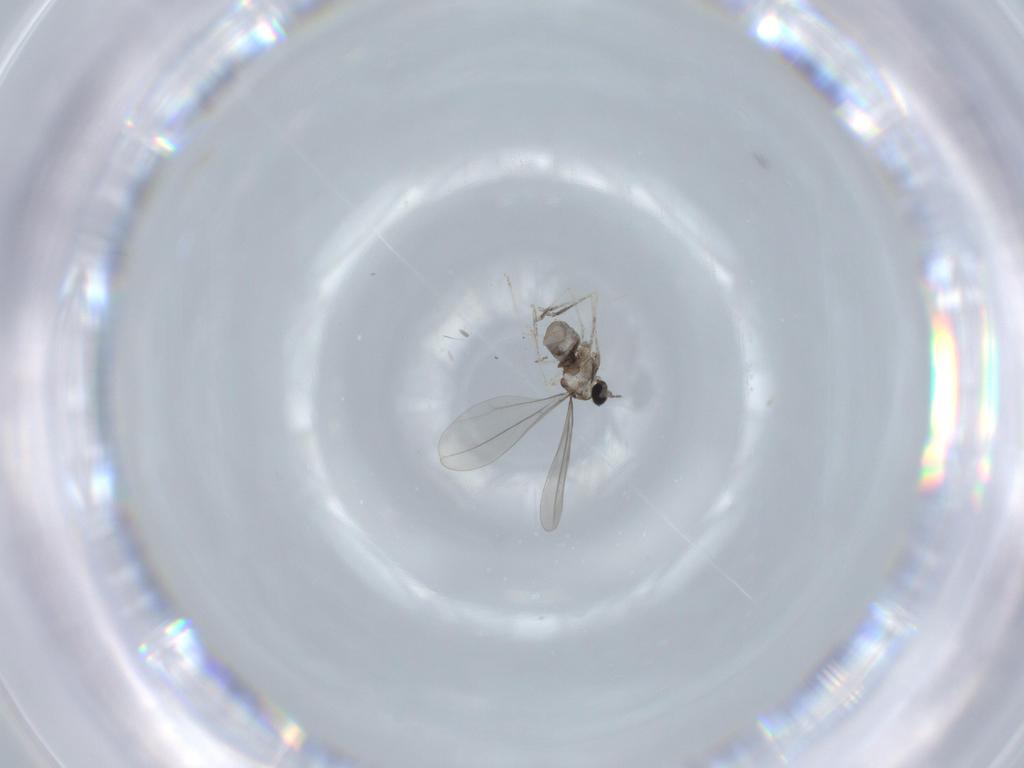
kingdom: Animalia
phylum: Arthropoda
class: Insecta
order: Diptera
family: Cecidomyiidae
